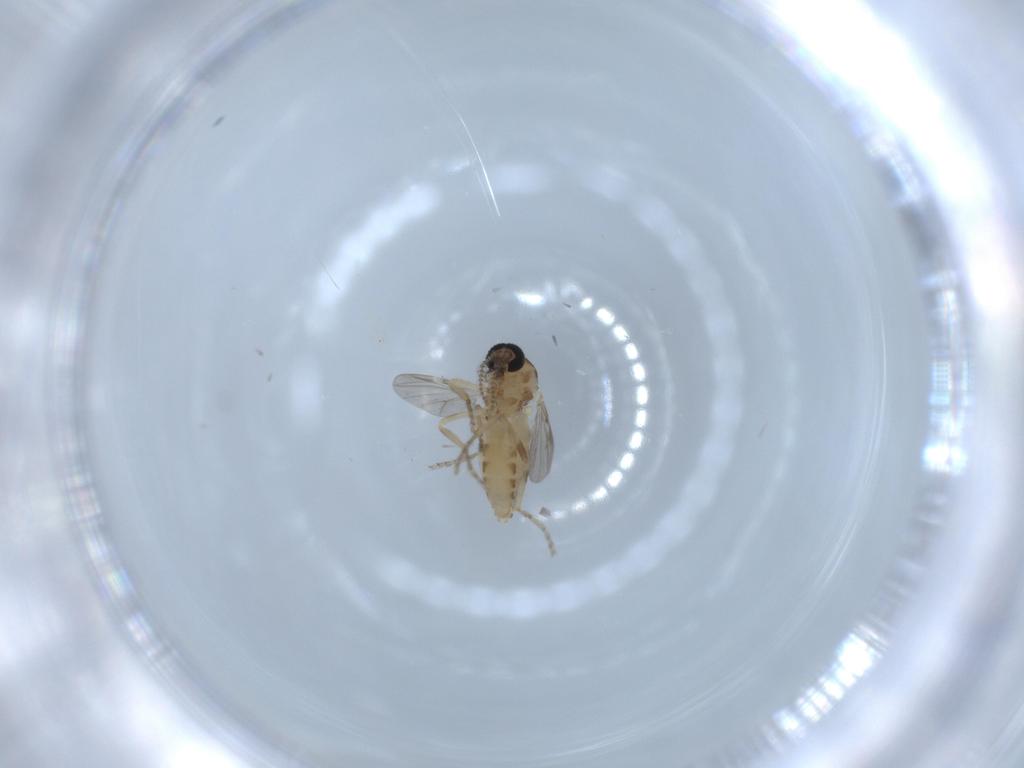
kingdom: Animalia
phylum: Arthropoda
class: Insecta
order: Diptera
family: Ceratopogonidae
